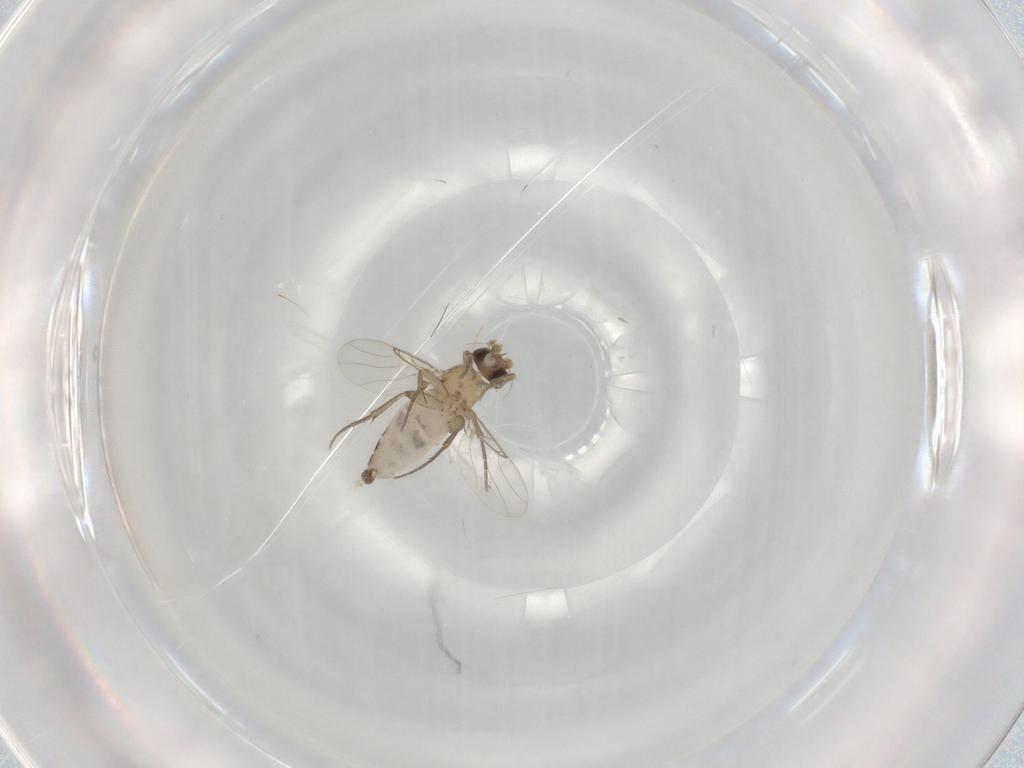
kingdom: Animalia
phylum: Arthropoda
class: Insecta
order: Diptera
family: Phoridae
